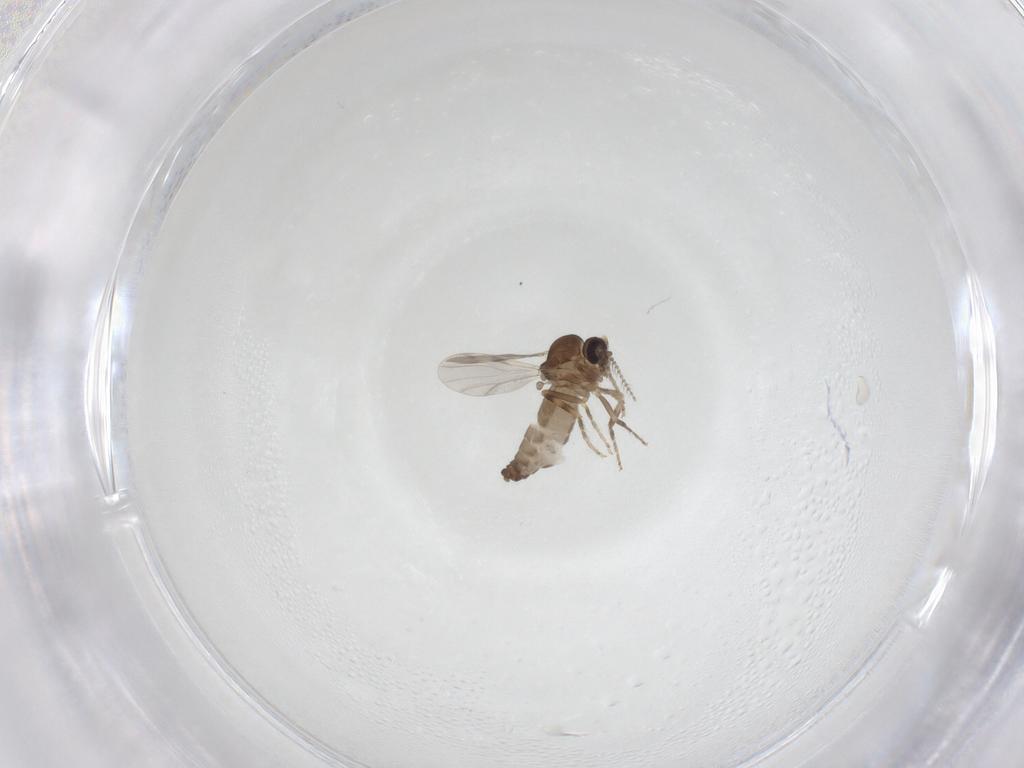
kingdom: Animalia
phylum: Arthropoda
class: Insecta
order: Diptera
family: Ceratopogonidae
